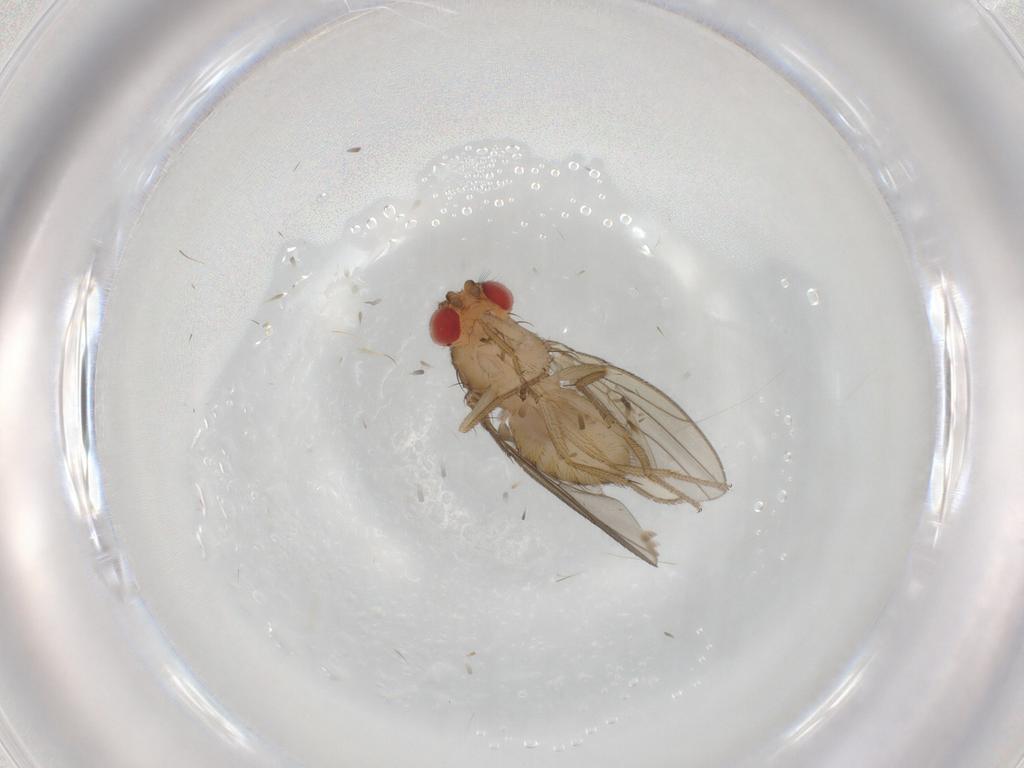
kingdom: Animalia
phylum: Arthropoda
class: Insecta
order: Diptera
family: Drosophilidae
